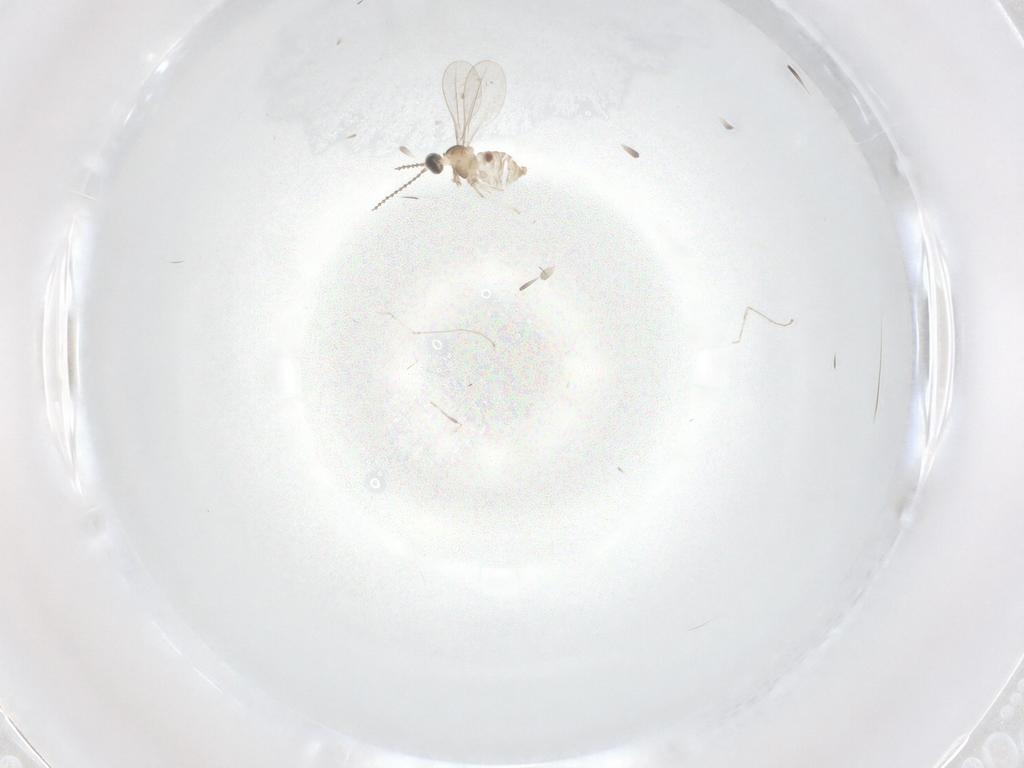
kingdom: Animalia
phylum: Arthropoda
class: Insecta
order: Diptera
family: Cecidomyiidae
